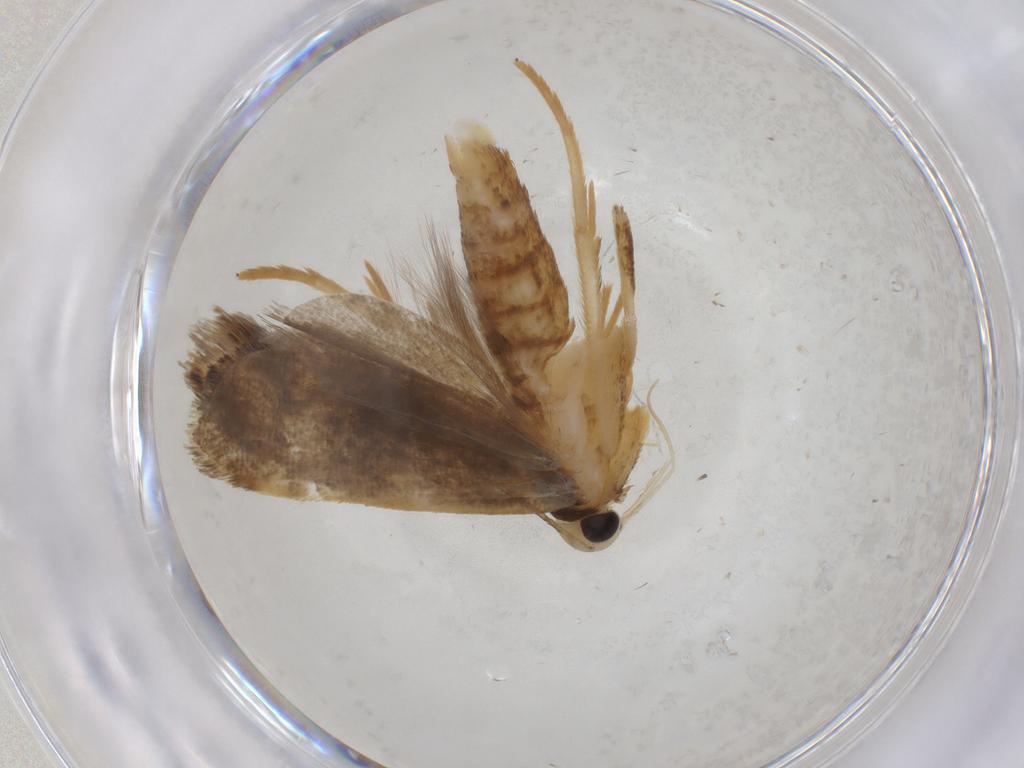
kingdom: Animalia
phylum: Arthropoda
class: Insecta
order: Lepidoptera
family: Gelechiidae
